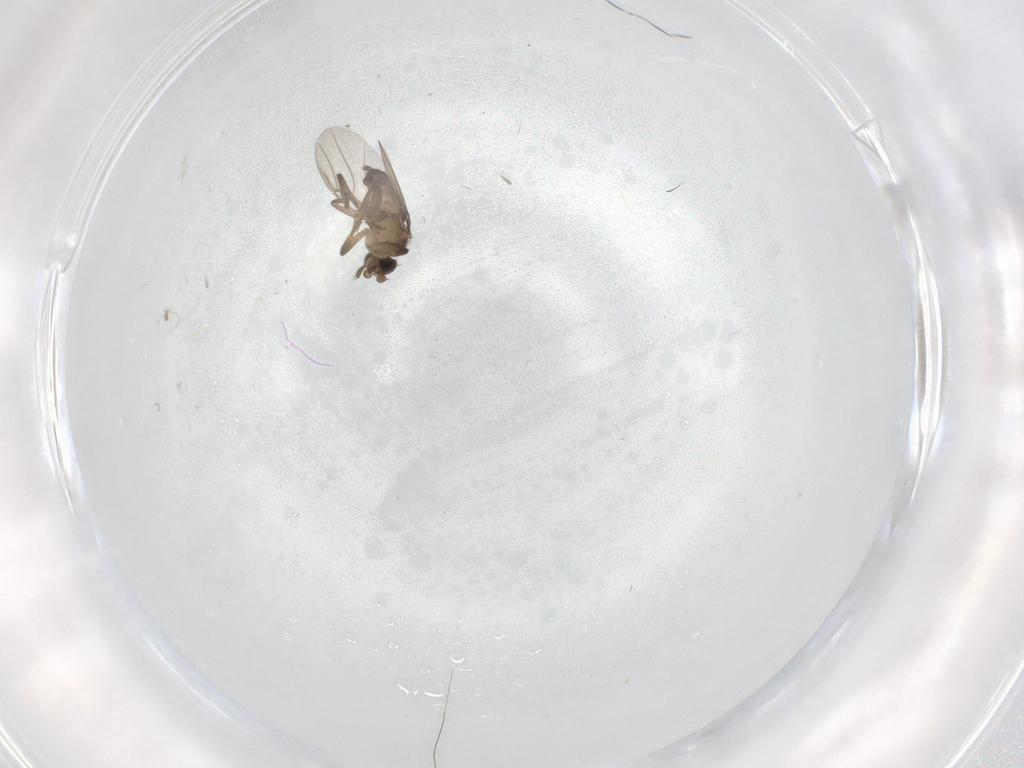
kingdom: Animalia
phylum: Arthropoda
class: Insecta
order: Diptera
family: Phoridae
